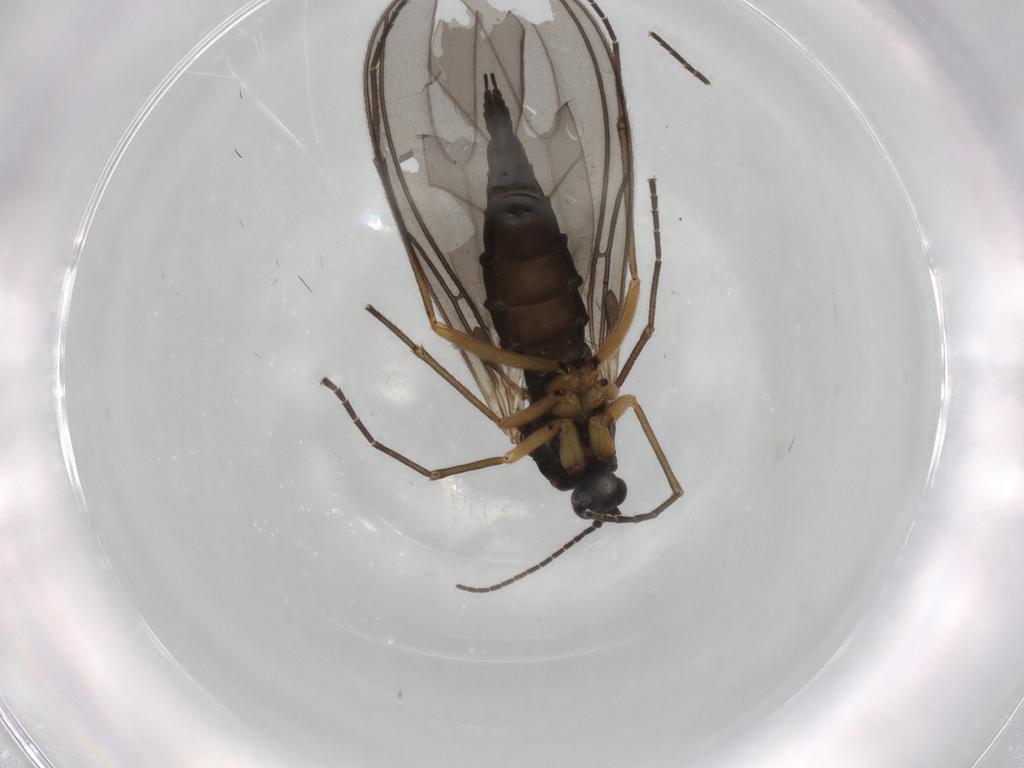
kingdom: Animalia
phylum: Arthropoda
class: Insecta
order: Diptera
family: Sciaridae
